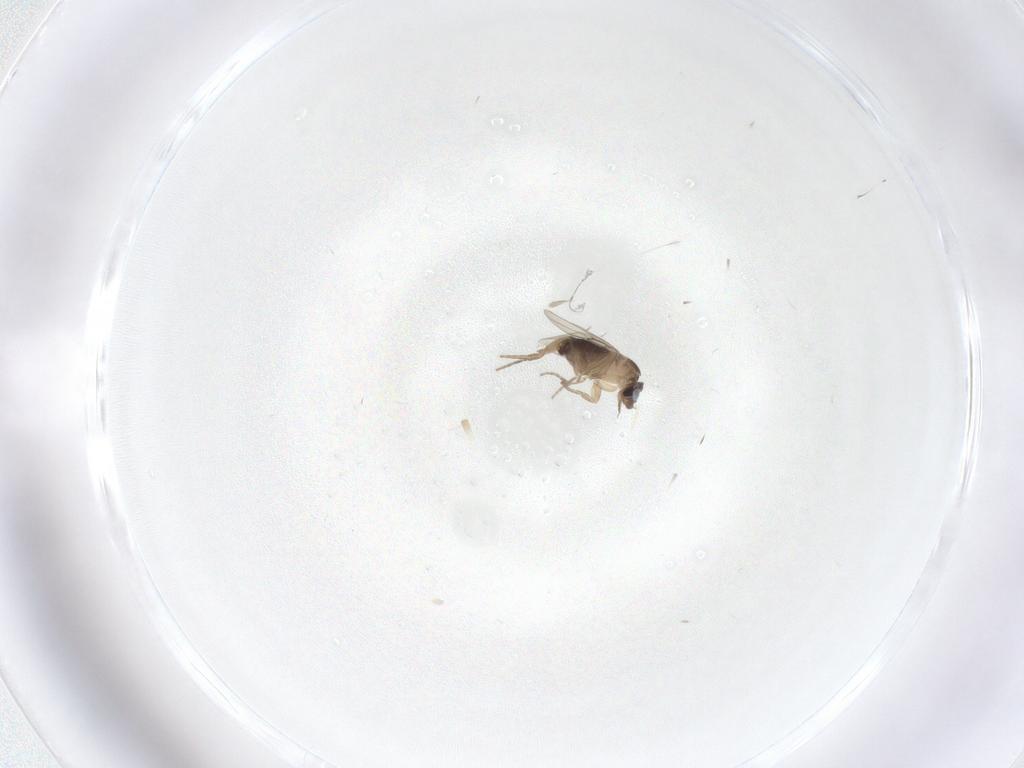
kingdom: Animalia
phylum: Arthropoda
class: Insecta
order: Diptera
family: Phoridae
